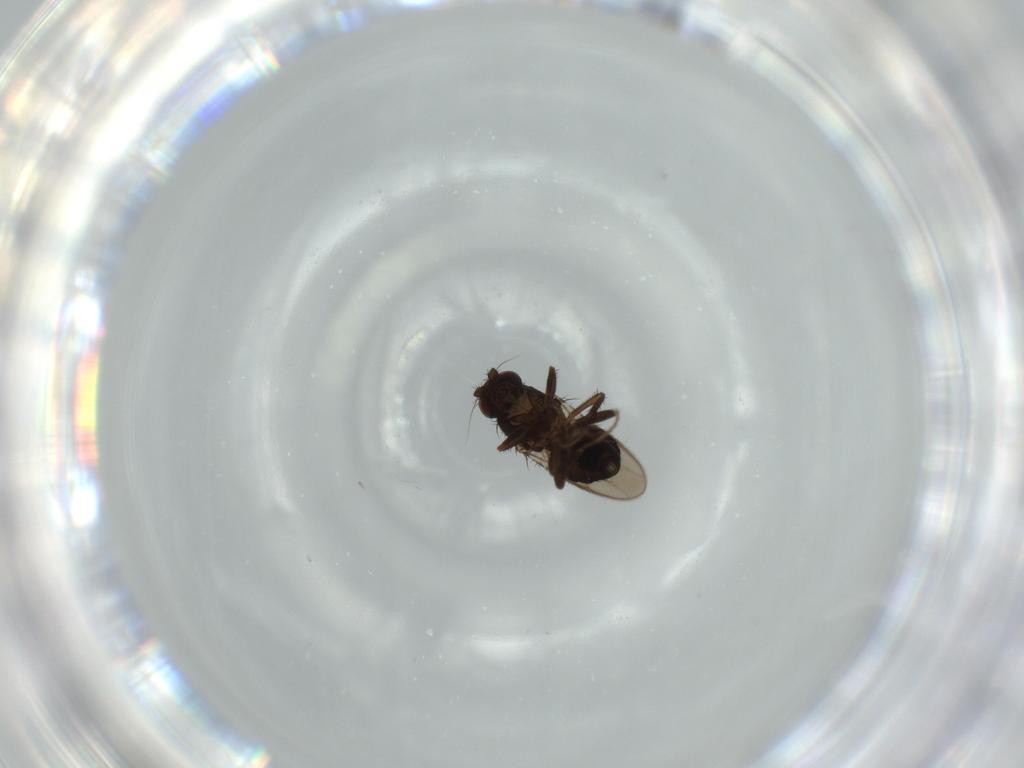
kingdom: Animalia
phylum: Arthropoda
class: Insecta
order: Diptera
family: Sphaeroceridae
